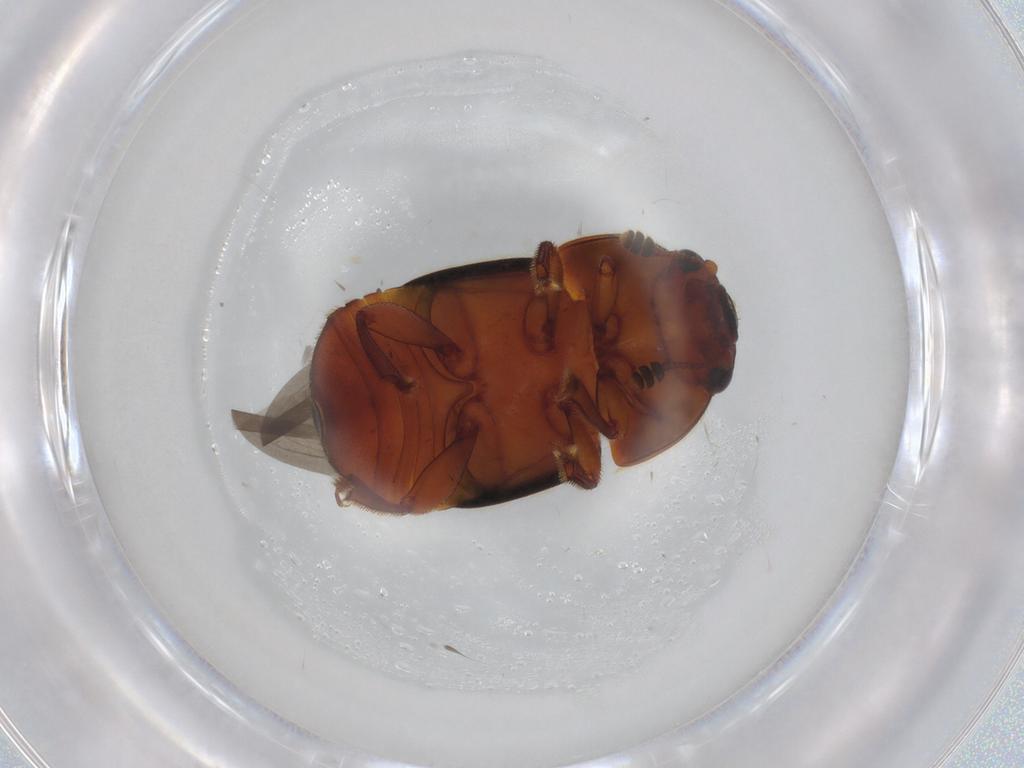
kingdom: Animalia
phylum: Arthropoda
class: Insecta
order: Coleoptera
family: Nitidulidae
